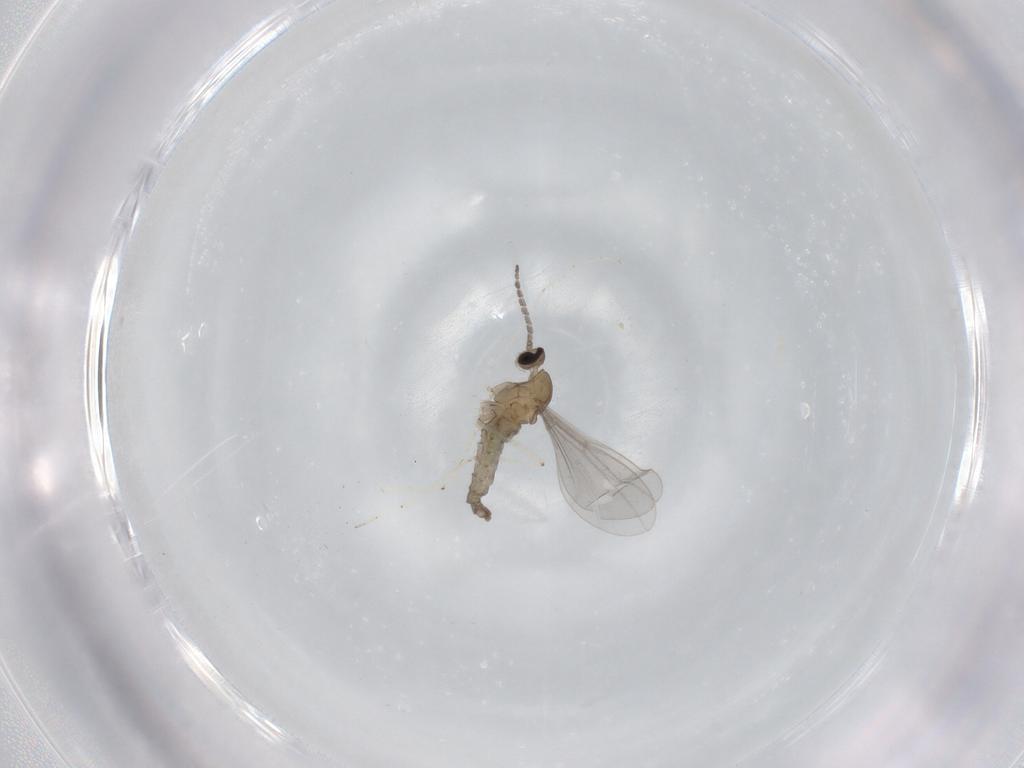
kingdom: Animalia
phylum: Arthropoda
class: Insecta
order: Diptera
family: Cecidomyiidae
